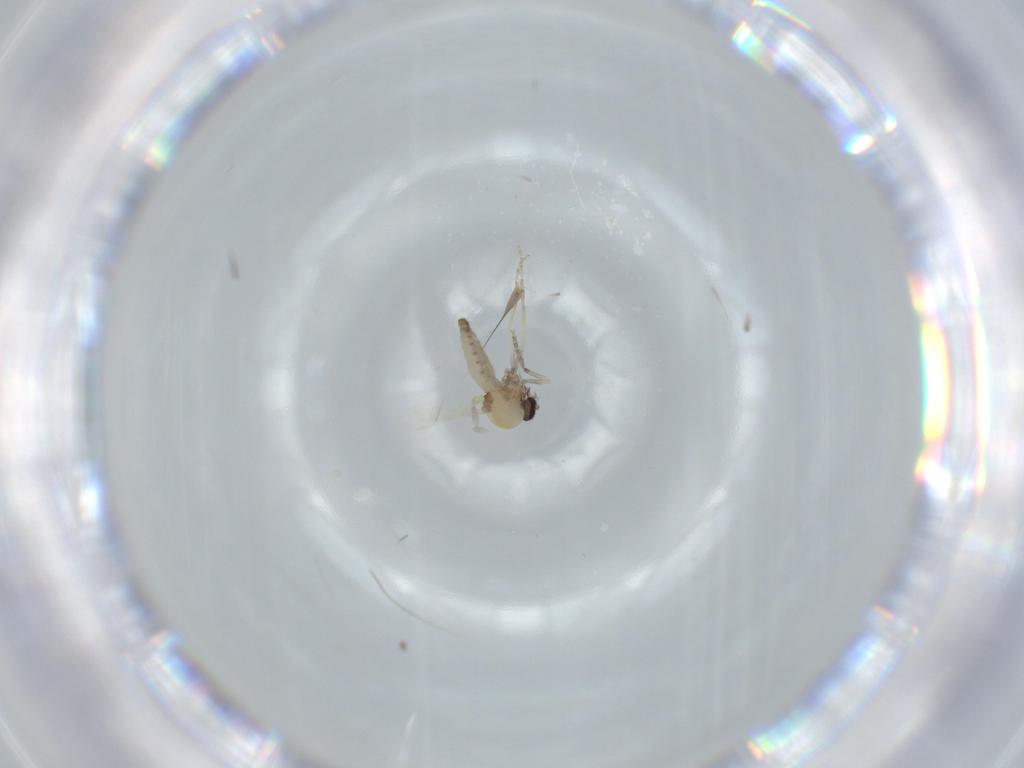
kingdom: Animalia
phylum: Arthropoda
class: Insecta
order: Diptera
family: Ceratopogonidae
